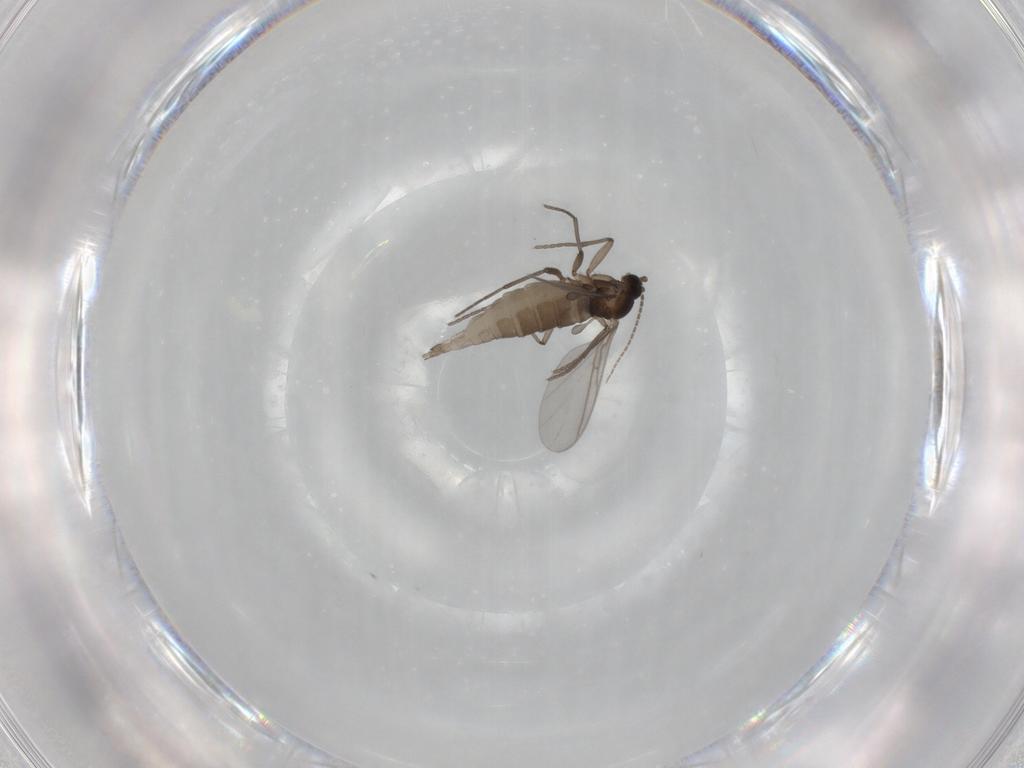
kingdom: Animalia
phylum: Arthropoda
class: Insecta
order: Diptera
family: Sciaridae
